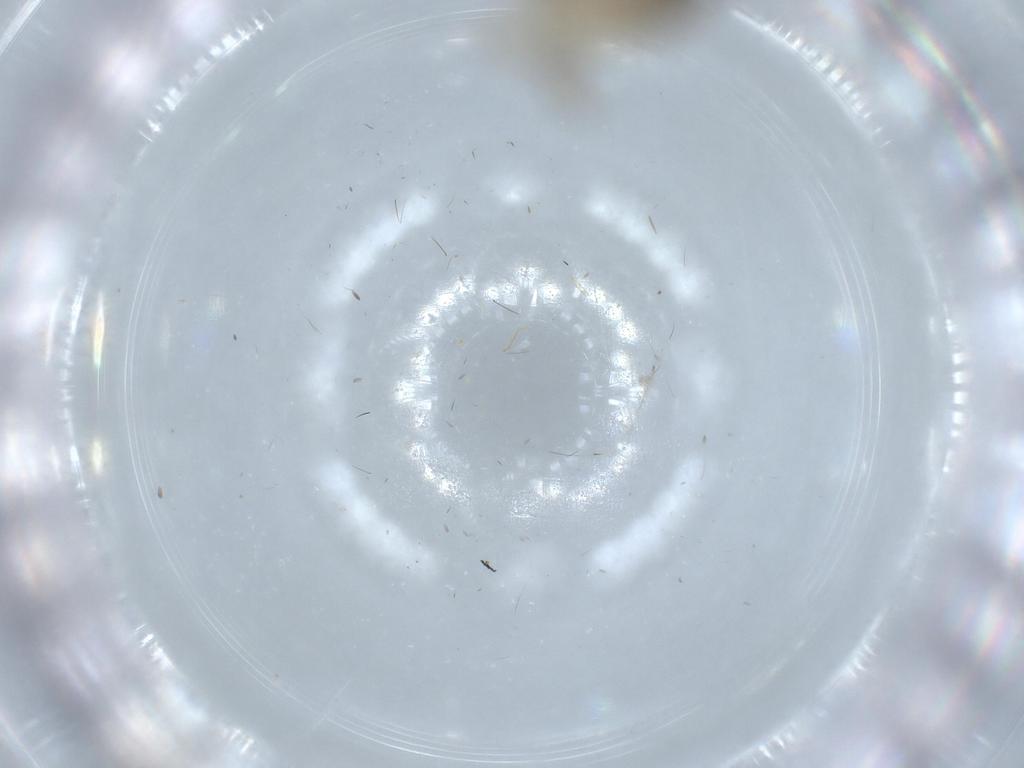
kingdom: Animalia
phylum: Arthropoda
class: Insecta
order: Hemiptera
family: Cicadellidae
